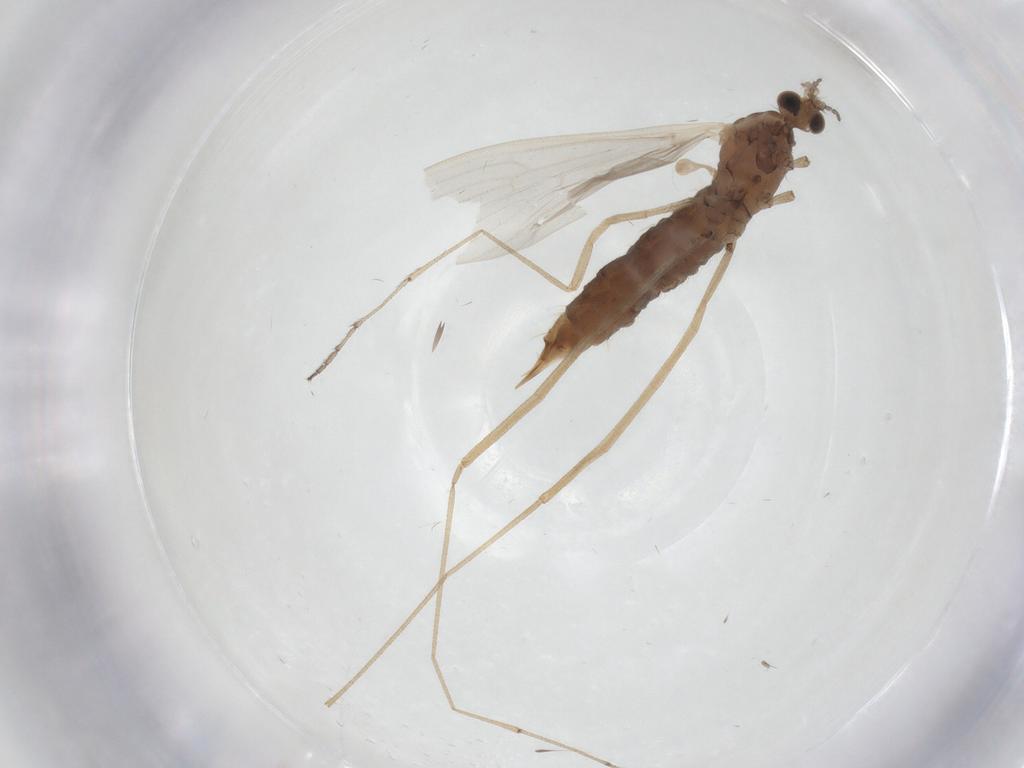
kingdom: Animalia
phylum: Arthropoda
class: Insecta
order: Diptera
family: Limoniidae
